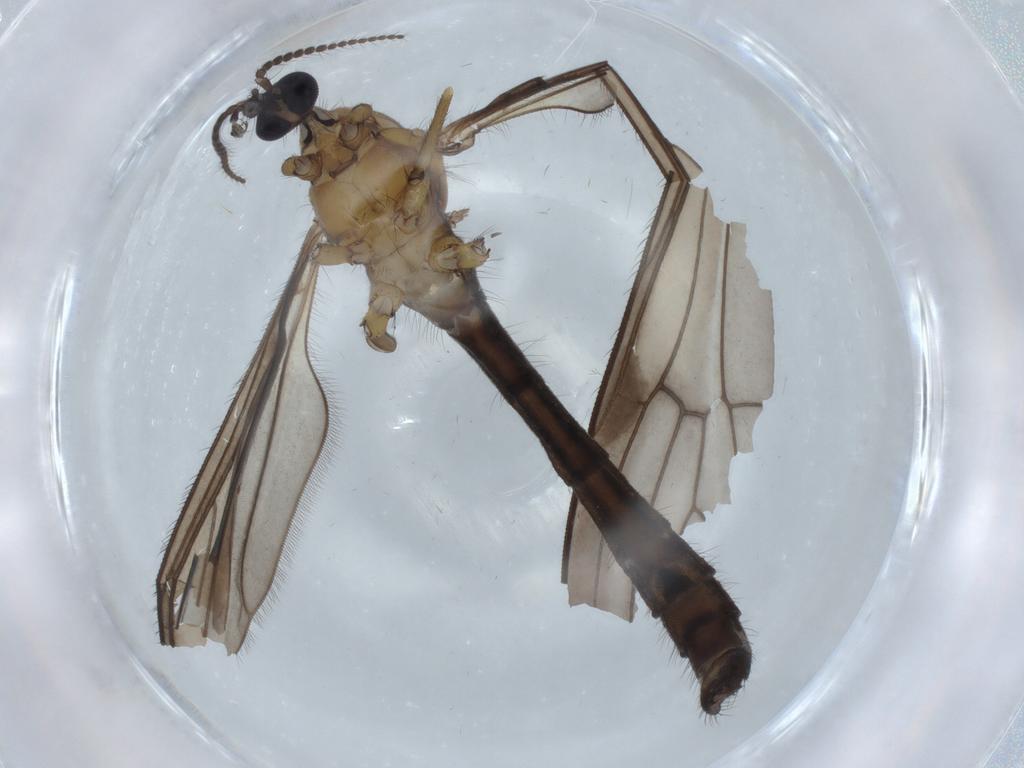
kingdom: Animalia
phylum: Arthropoda
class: Insecta
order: Diptera
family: Cecidomyiidae
